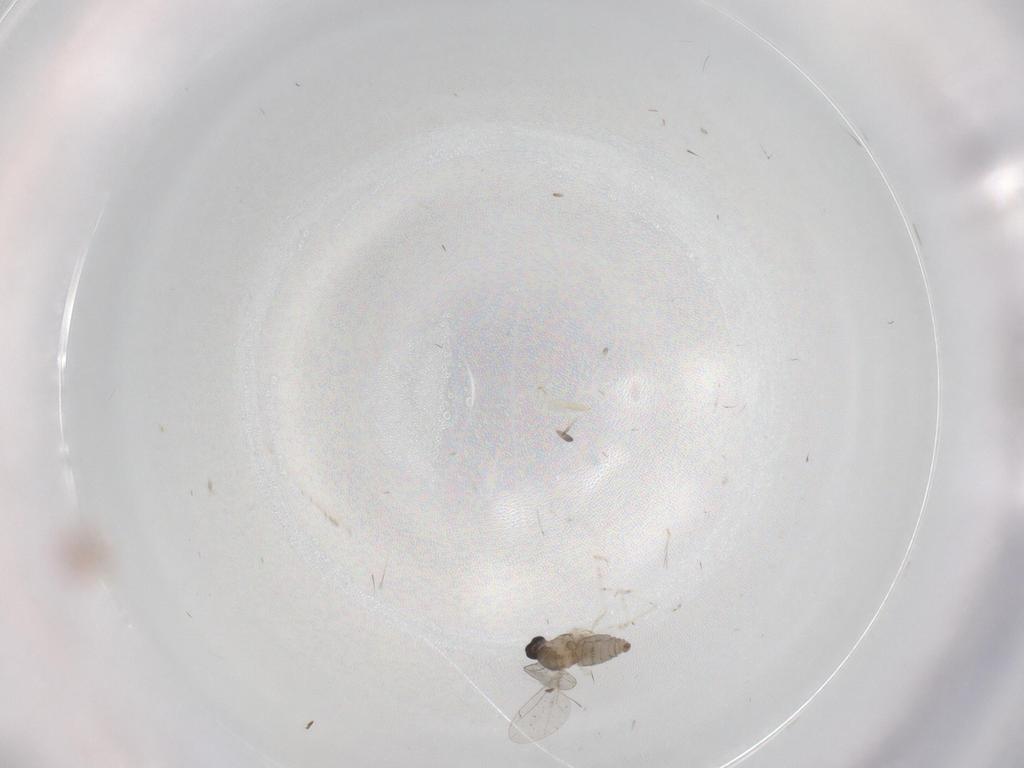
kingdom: Animalia
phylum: Arthropoda
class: Insecta
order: Diptera
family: Cecidomyiidae
